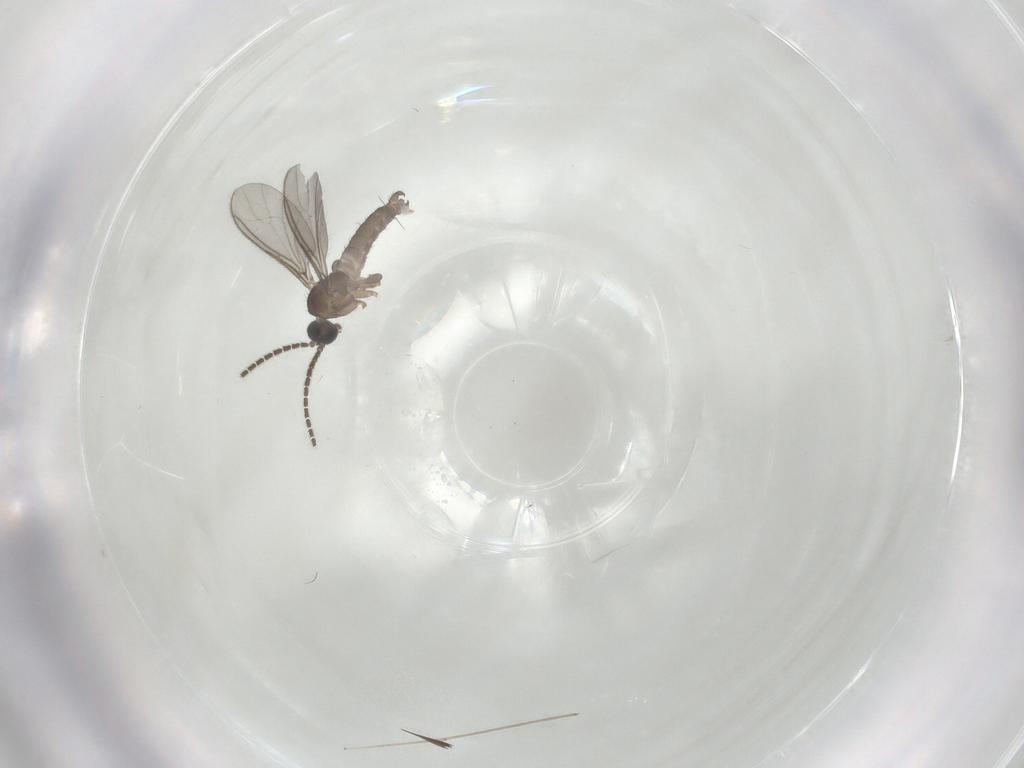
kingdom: Animalia
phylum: Arthropoda
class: Insecta
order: Diptera
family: Sciaridae
